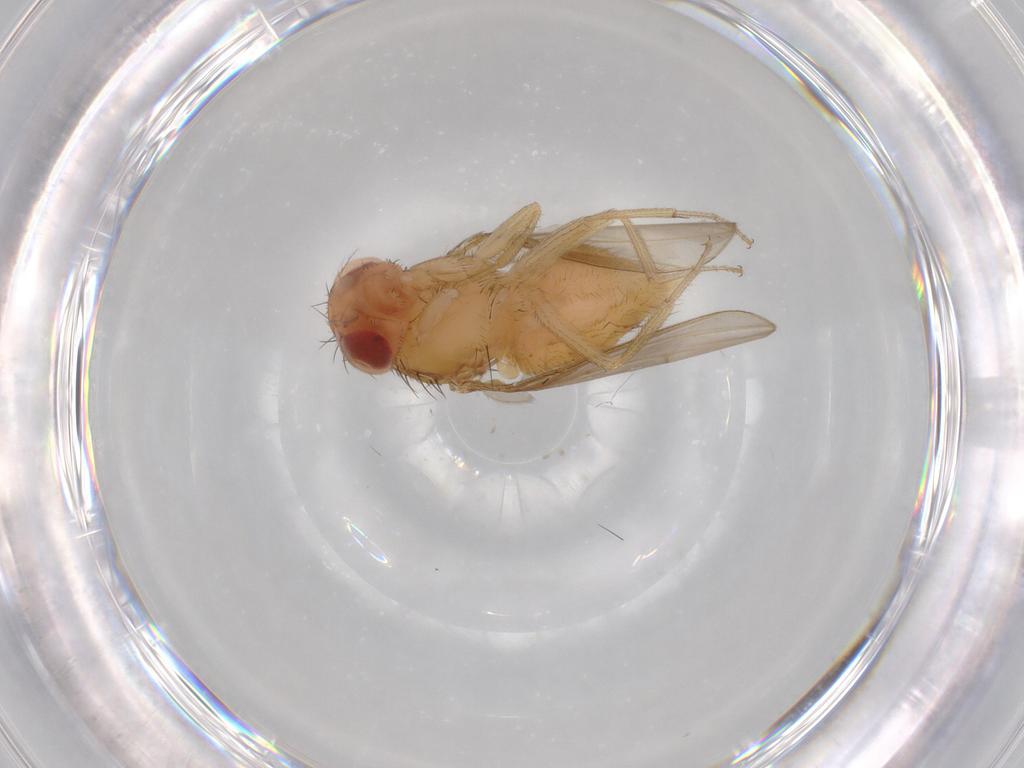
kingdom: Animalia
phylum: Arthropoda
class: Insecta
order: Diptera
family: Drosophilidae
